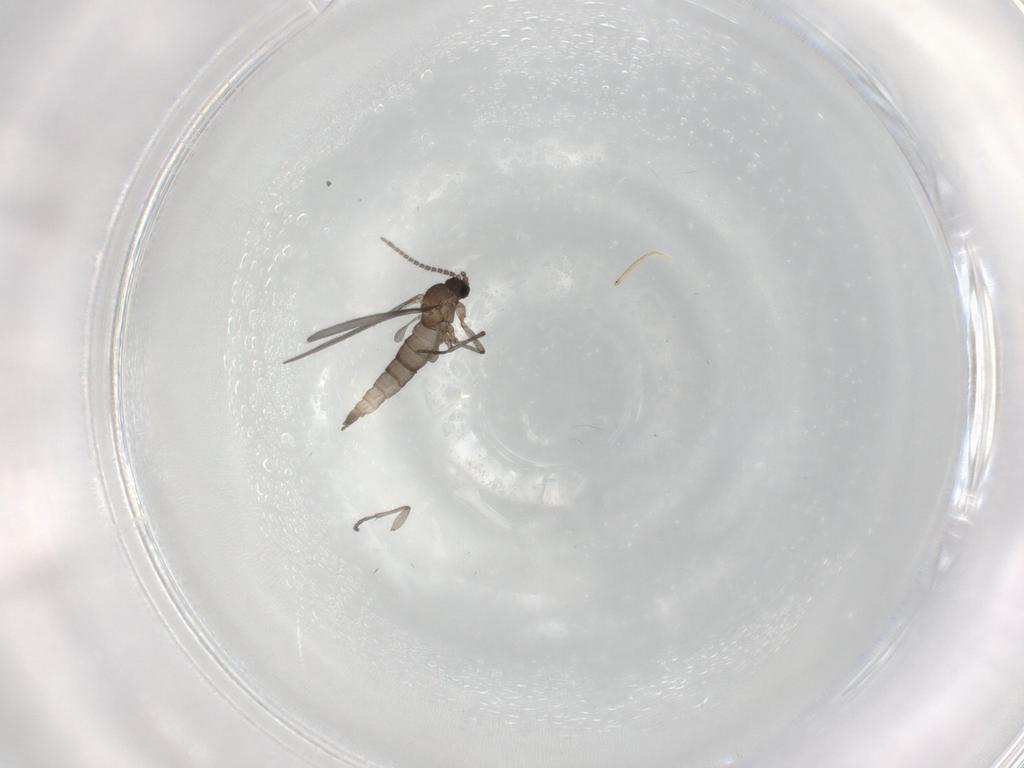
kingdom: Animalia
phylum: Arthropoda
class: Insecta
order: Diptera
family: Sciaridae
